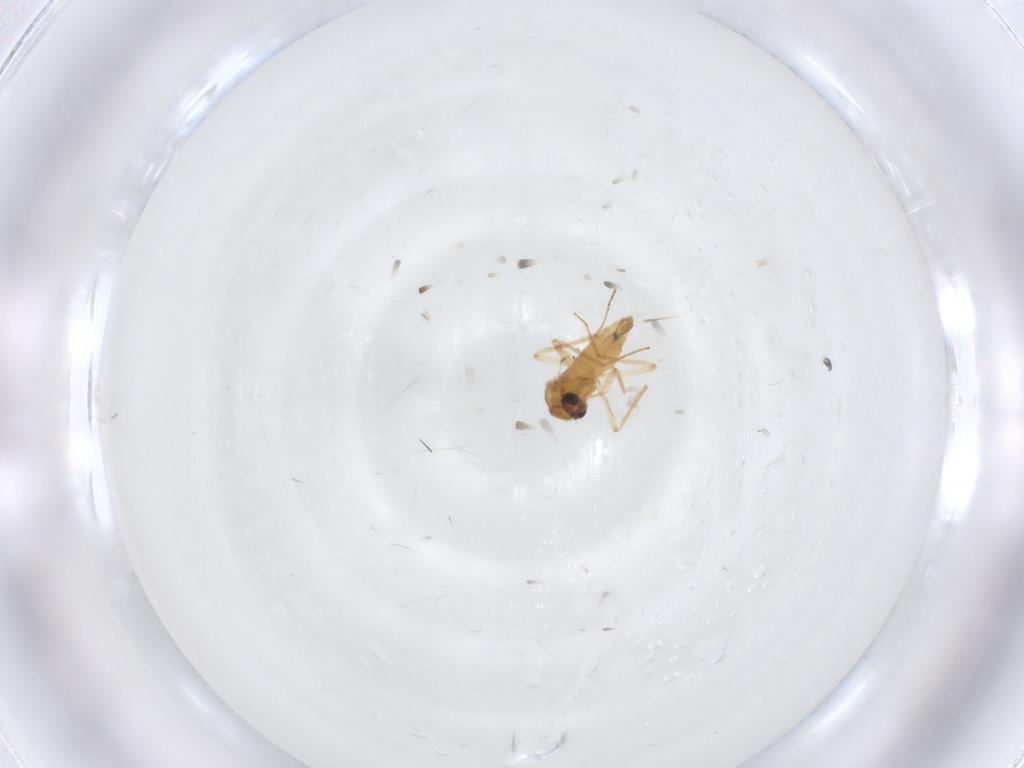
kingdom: Animalia
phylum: Arthropoda
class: Insecta
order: Diptera
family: Chironomidae
